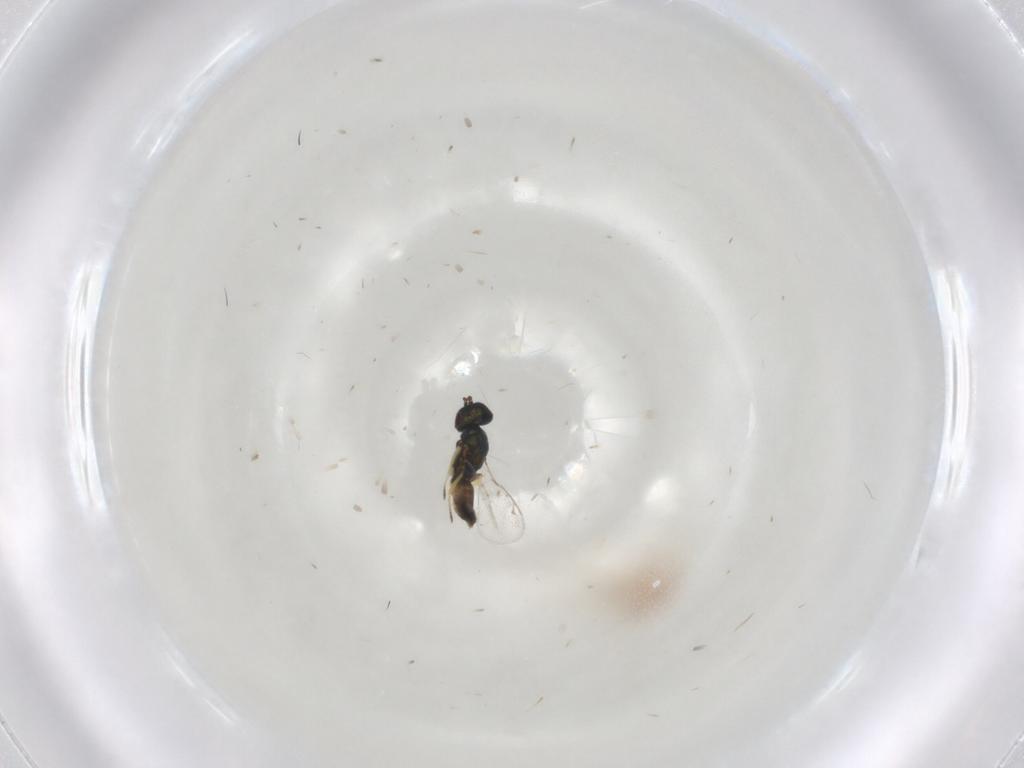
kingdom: Animalia
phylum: Arthropoda
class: Insecta
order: Hymenoptera
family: Eupelmidae
